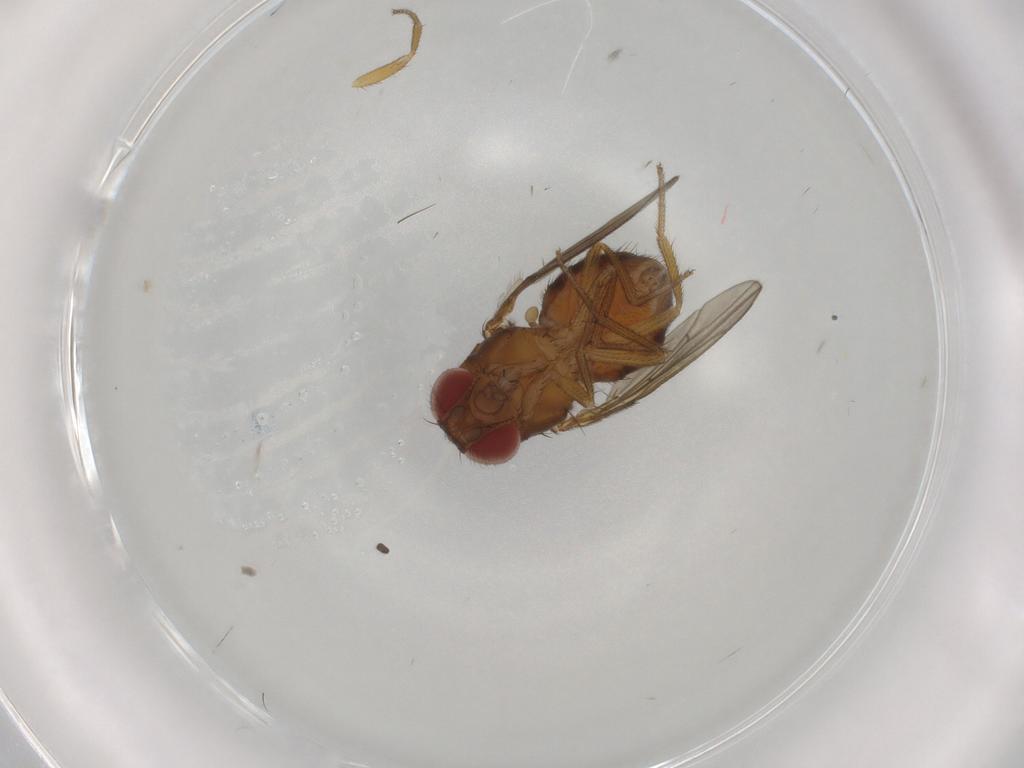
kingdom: Animalia
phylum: Arthropoda
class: Insecta
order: Diptera
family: Drosophilidae
